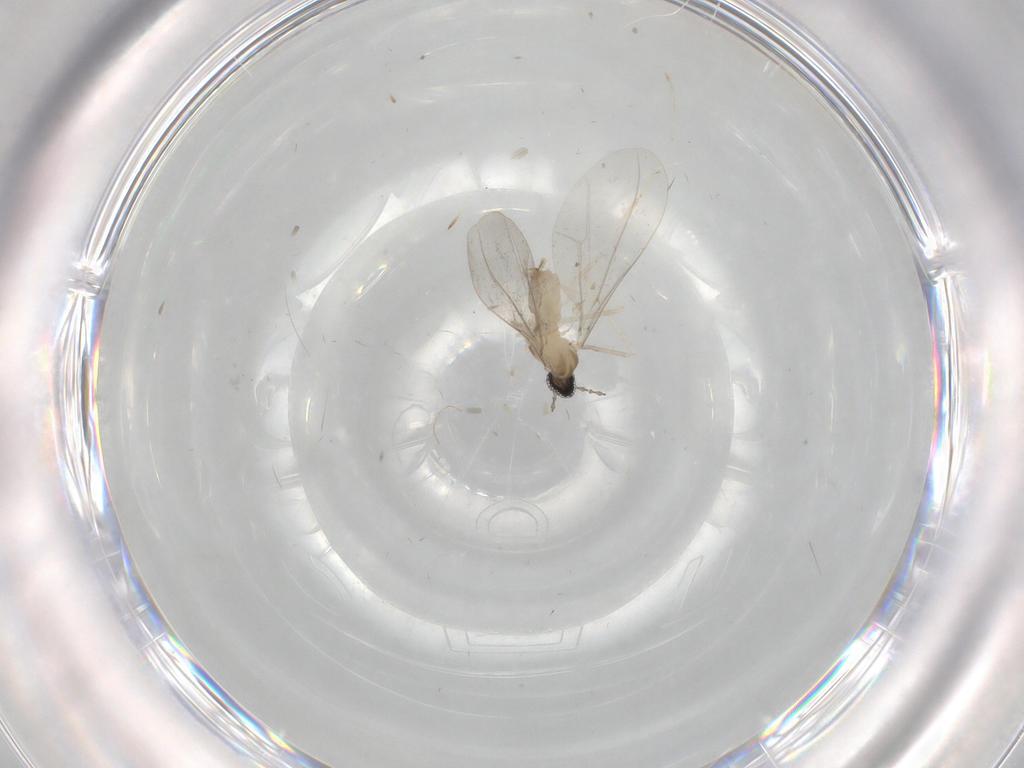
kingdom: Animalia
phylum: Arthropoda
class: Insecta
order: Diptera
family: Cecidomyiidae
